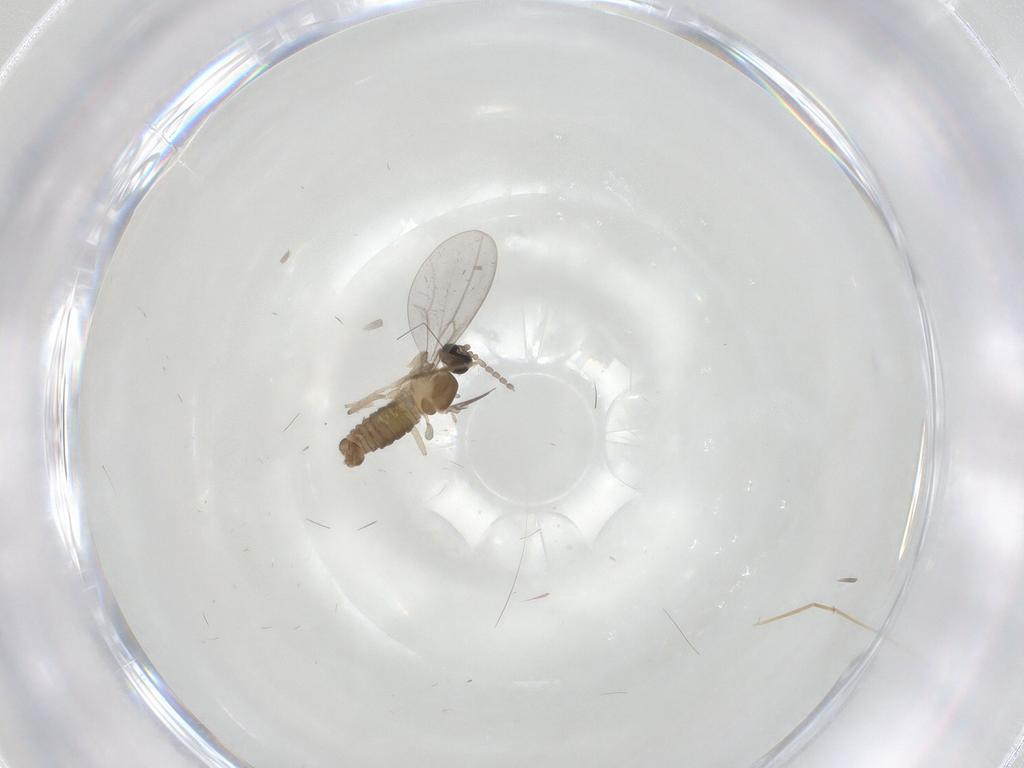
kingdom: Animalia
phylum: Arthropoda
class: Insecta
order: Diptera
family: Cecidomyiidae
